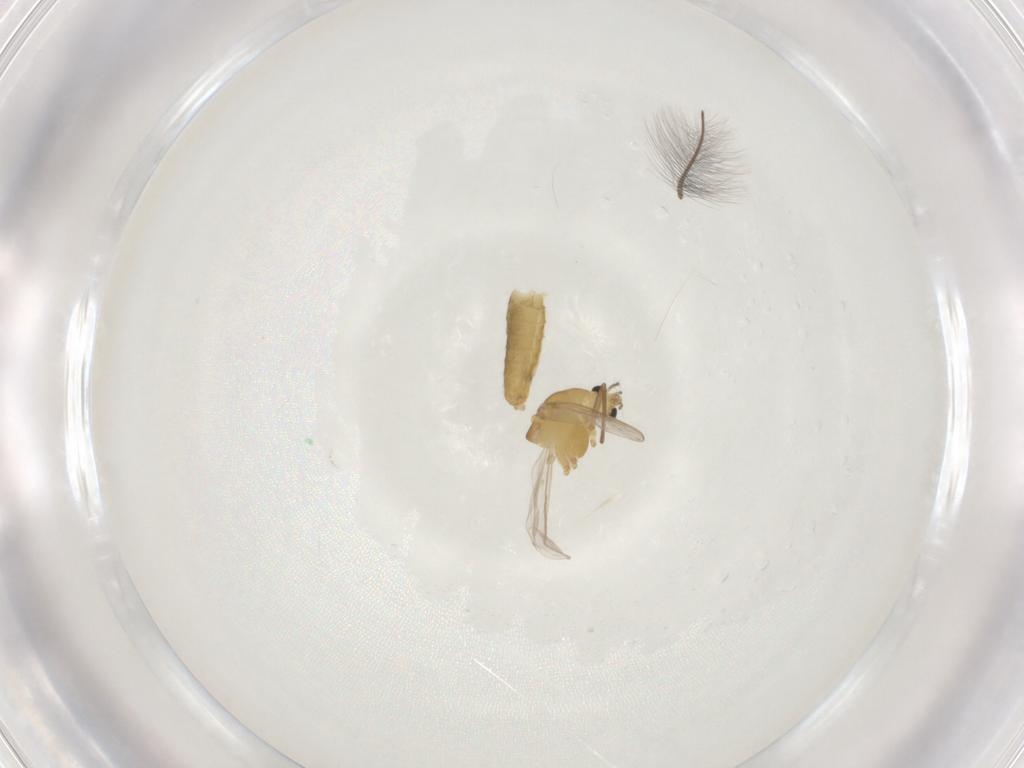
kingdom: Animalia
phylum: Arthropoda
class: Insecta
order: Diptera
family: Chironomidae
